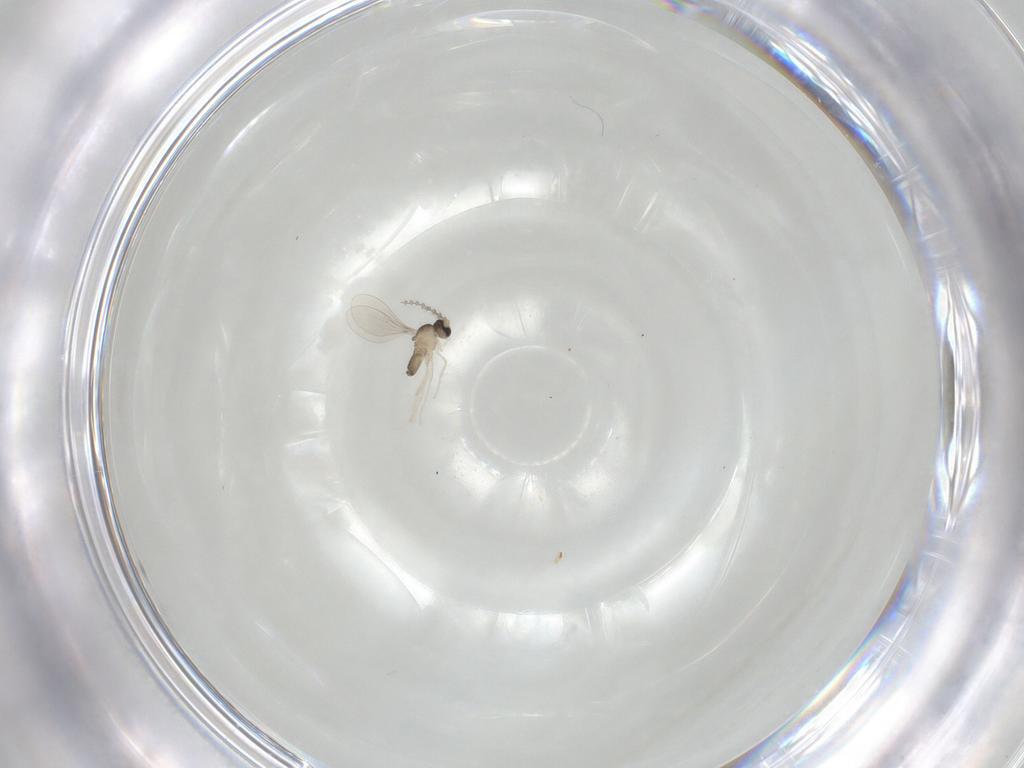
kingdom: Animalia
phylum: Arthropoda
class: Insecta
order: Diptera
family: Cecidomyiidae
